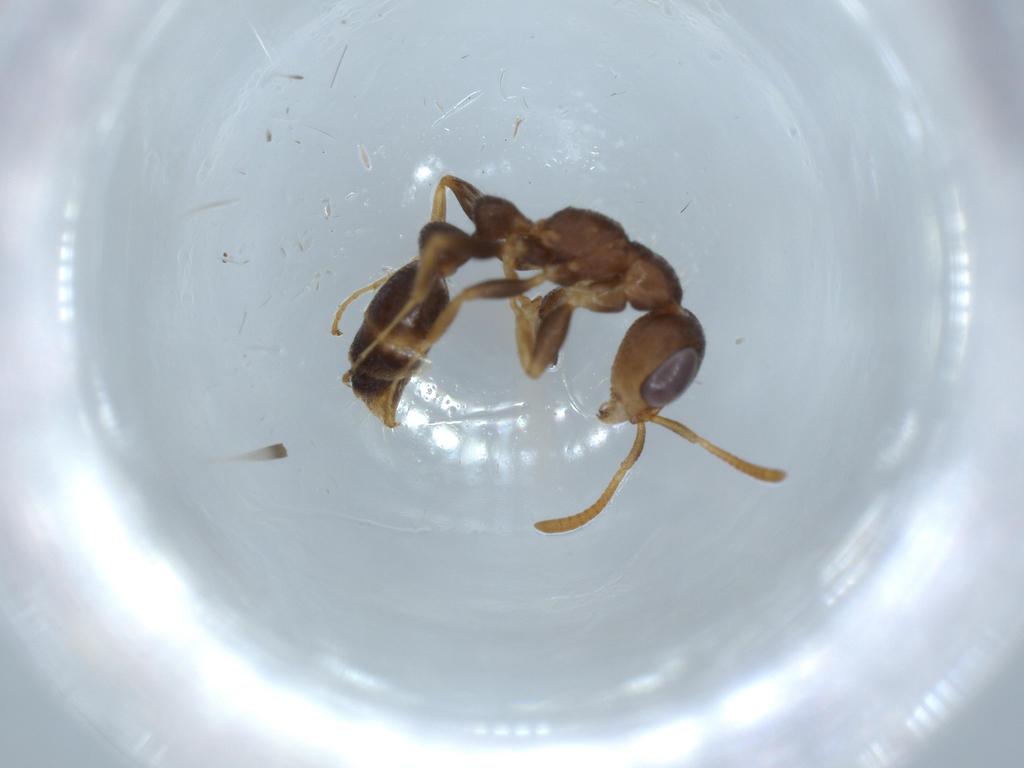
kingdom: Animalia
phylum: Arthropoda
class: Insecta
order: Hymenoptera
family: Formicidae
